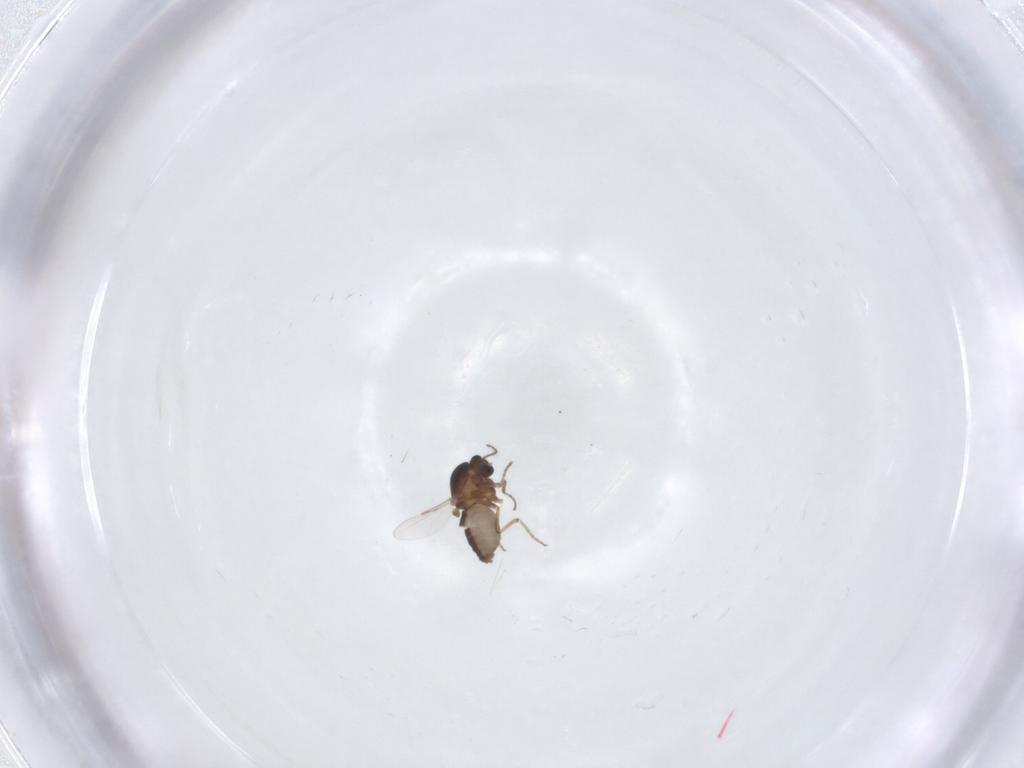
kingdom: Animalia
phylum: Arthropoda
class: Insecta
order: Diptera
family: Ceratopogonidae
